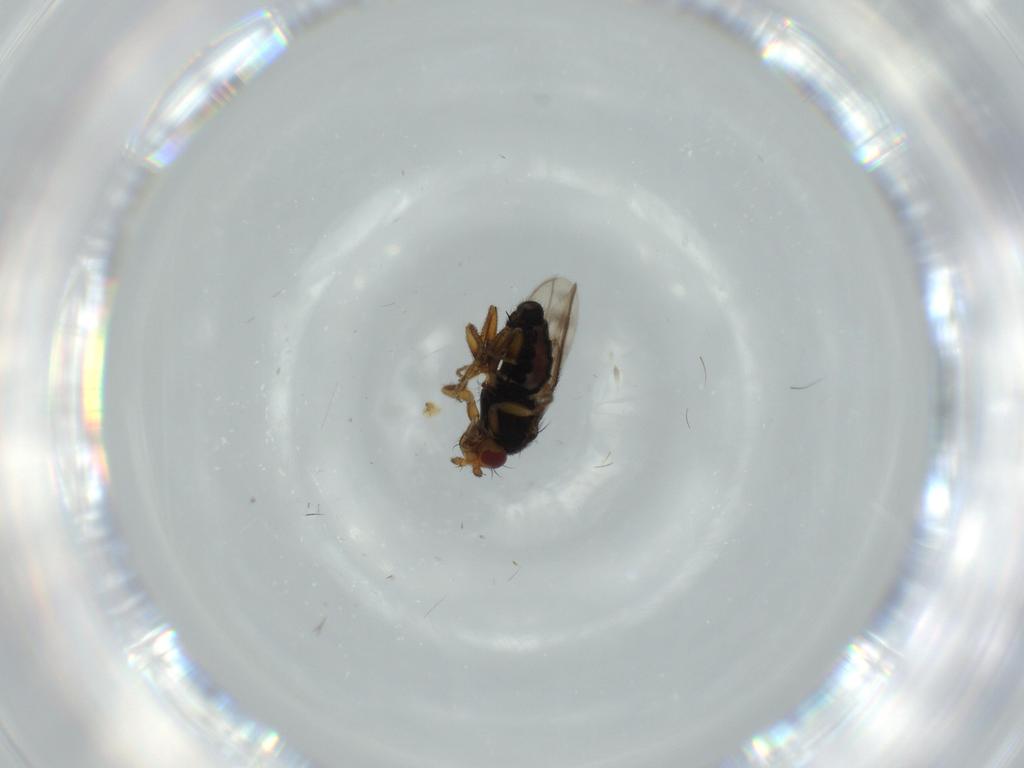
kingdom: Animalia
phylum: Arthropoda
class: Insecta
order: Diptera
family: Sphaeroceridae
